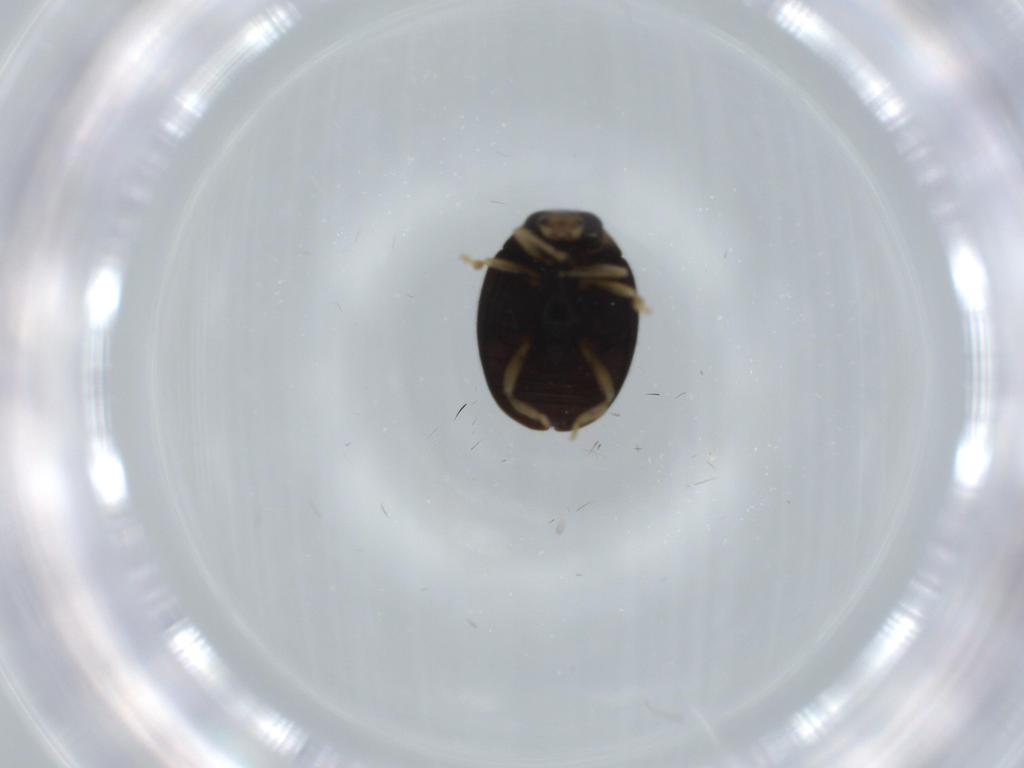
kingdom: Animalia
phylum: Arthropoda
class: Insecta
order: Coleoptera
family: Coccinellidae
